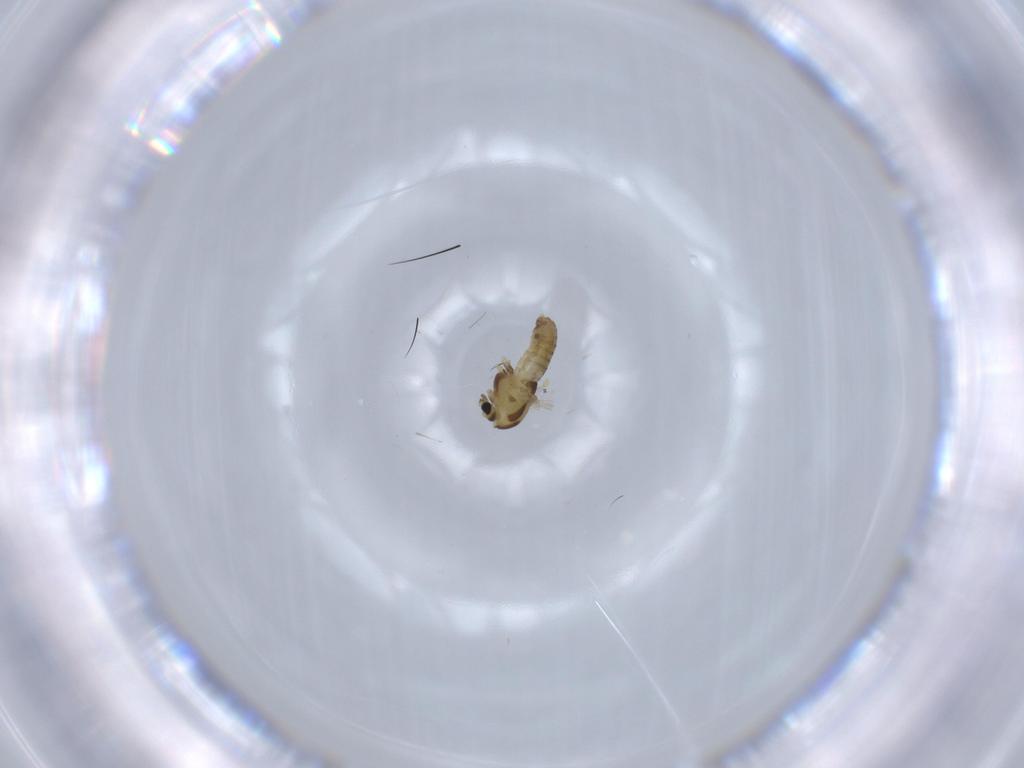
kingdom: Animalia
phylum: Arthropoda
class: Insecta
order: Diptera
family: Chironomidae
